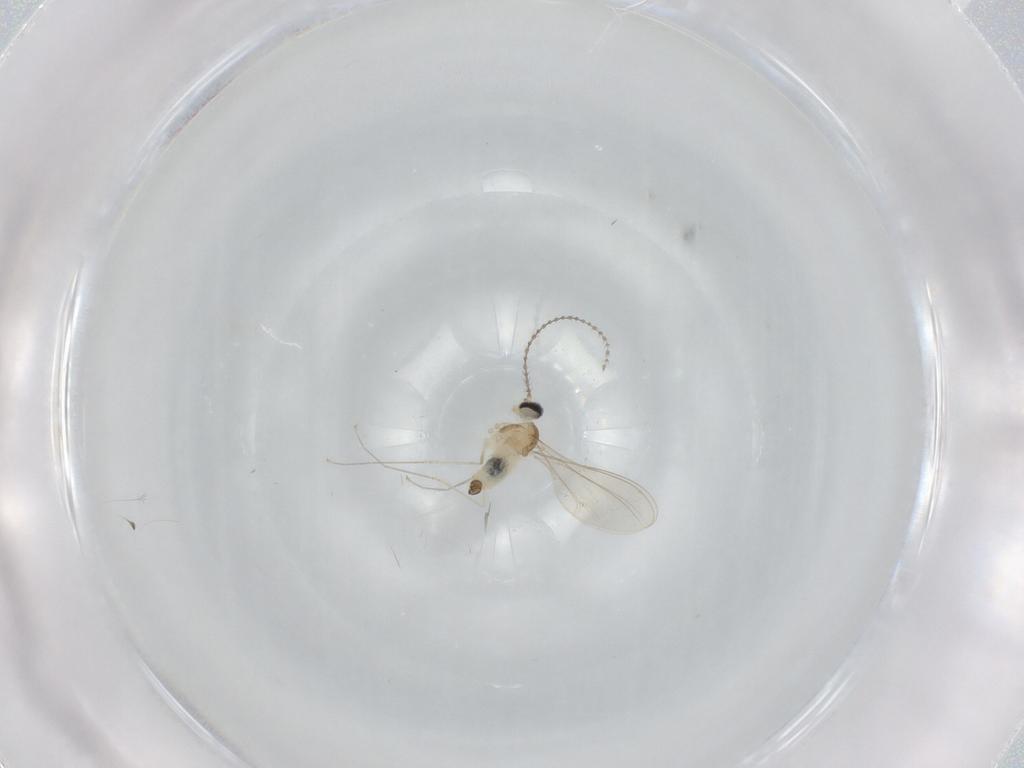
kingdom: Animalia
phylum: Arthropoda
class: Insecta
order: Diptera
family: Cecidomyiidae
